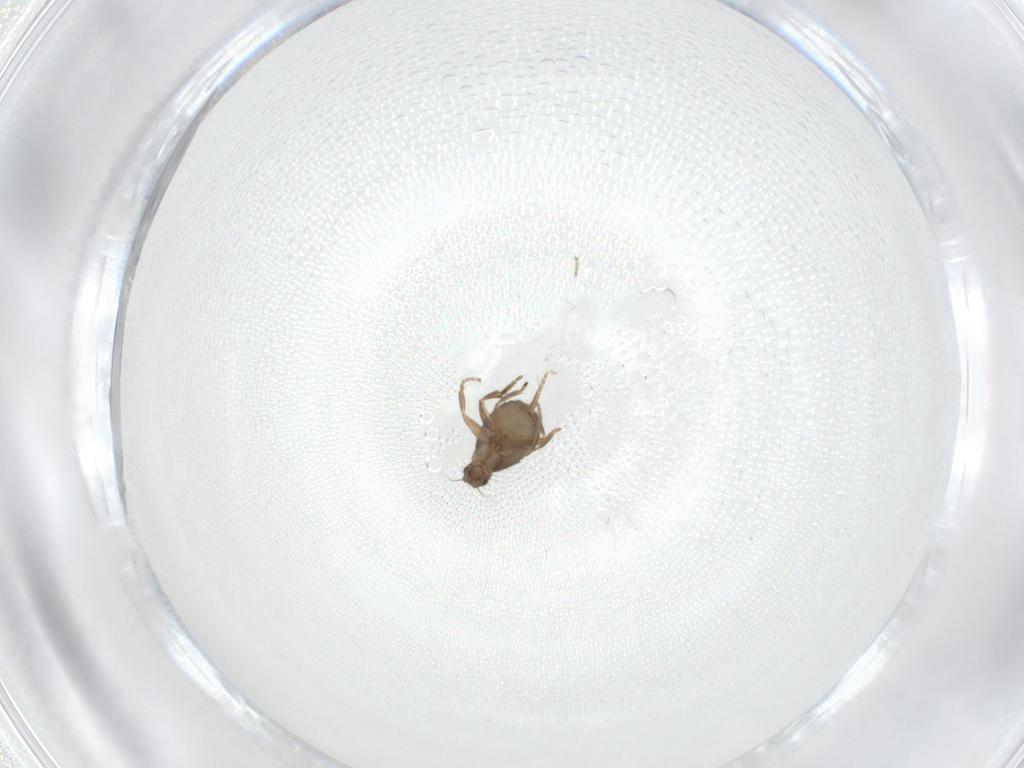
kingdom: Animalia
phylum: Arthropoda
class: Insecta
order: Diptera
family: Phoridae
